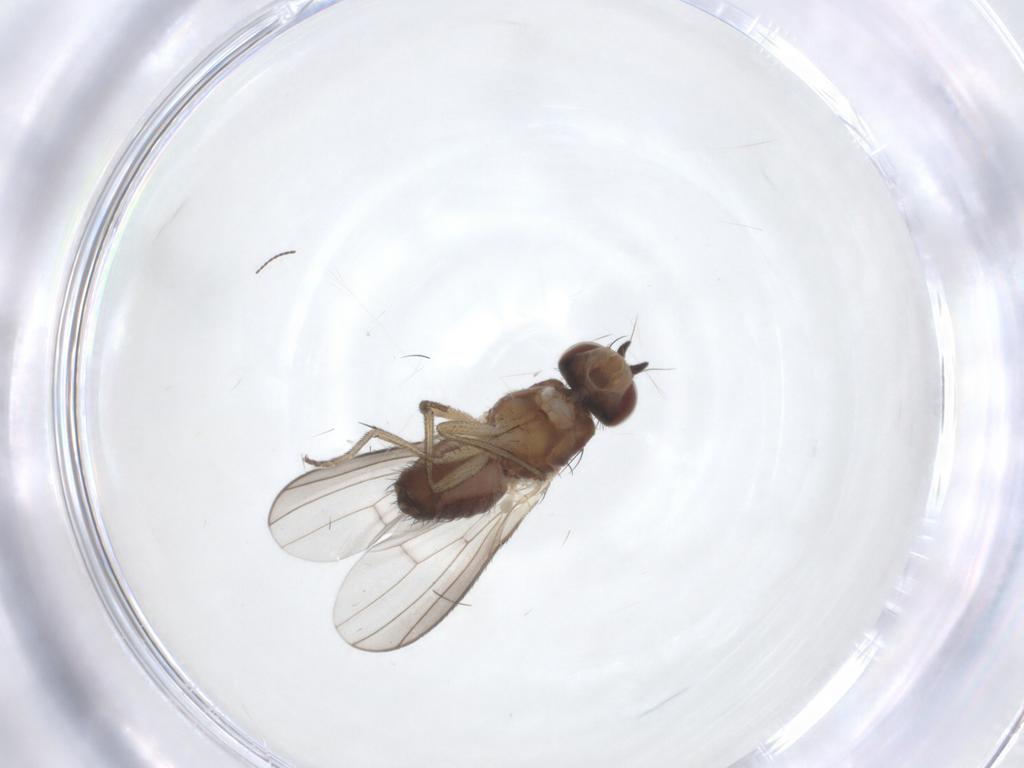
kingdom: Animalia
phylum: Arthropoda
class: Insecta
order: Diptera
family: Heleomyzidae
